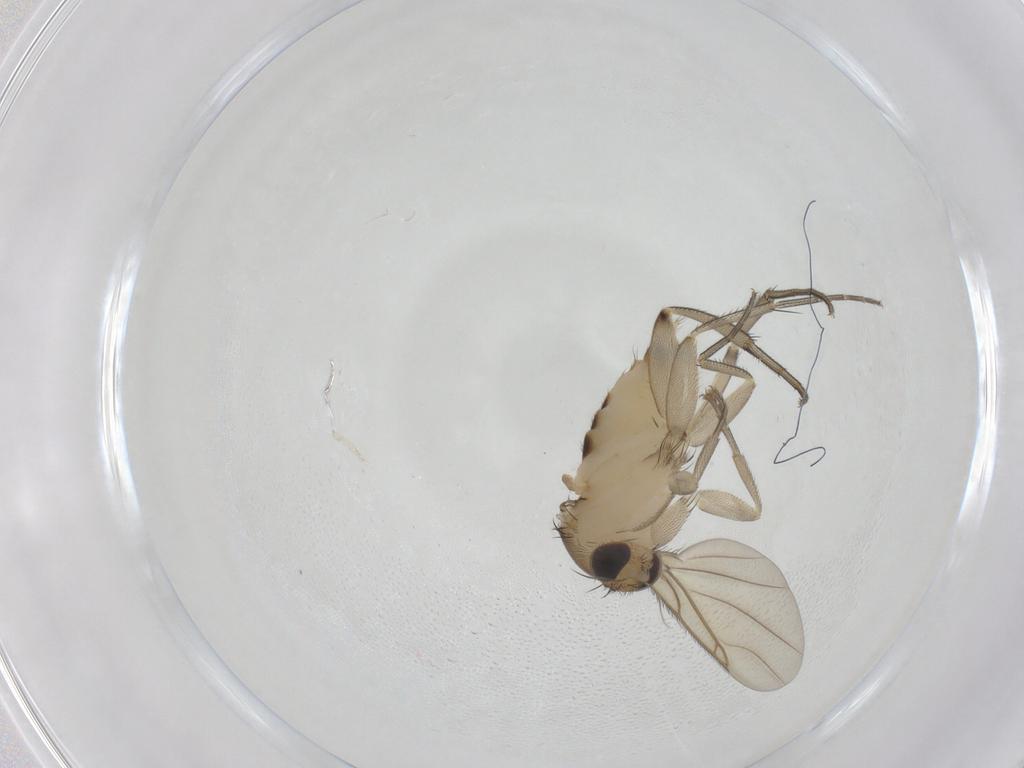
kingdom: Animalia
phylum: Arthropoda
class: Insecta
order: Diptera
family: Phoridae
